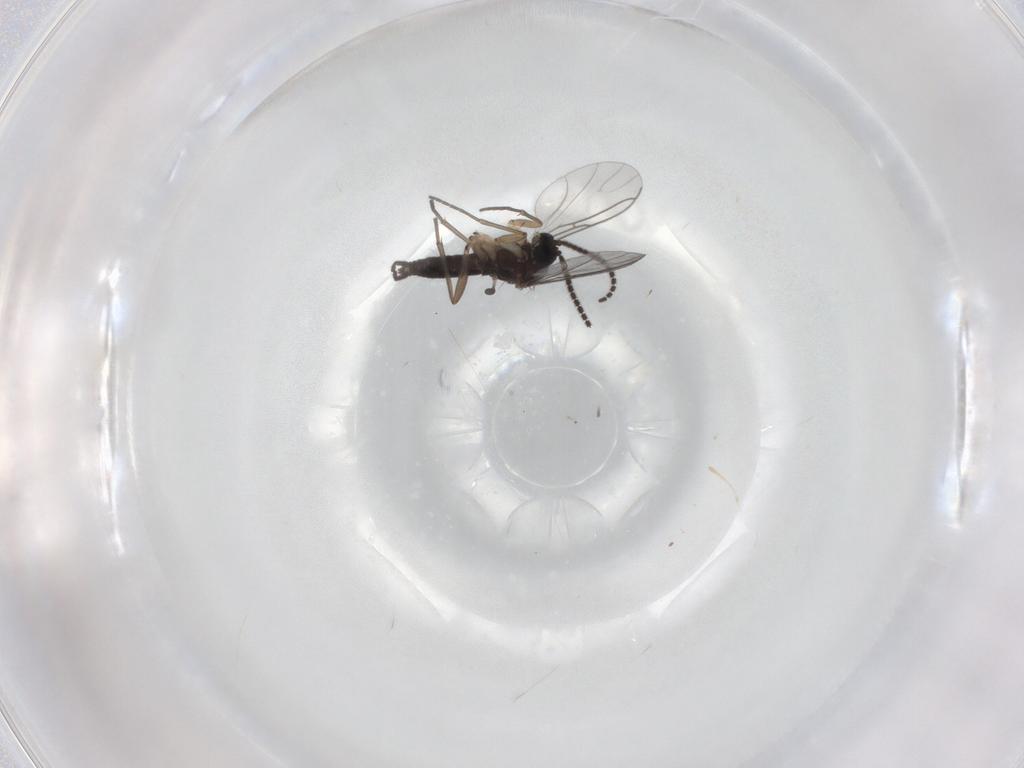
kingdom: Animalia
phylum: Arthropoda
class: Insecta
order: Diptera
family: Sciaridae
